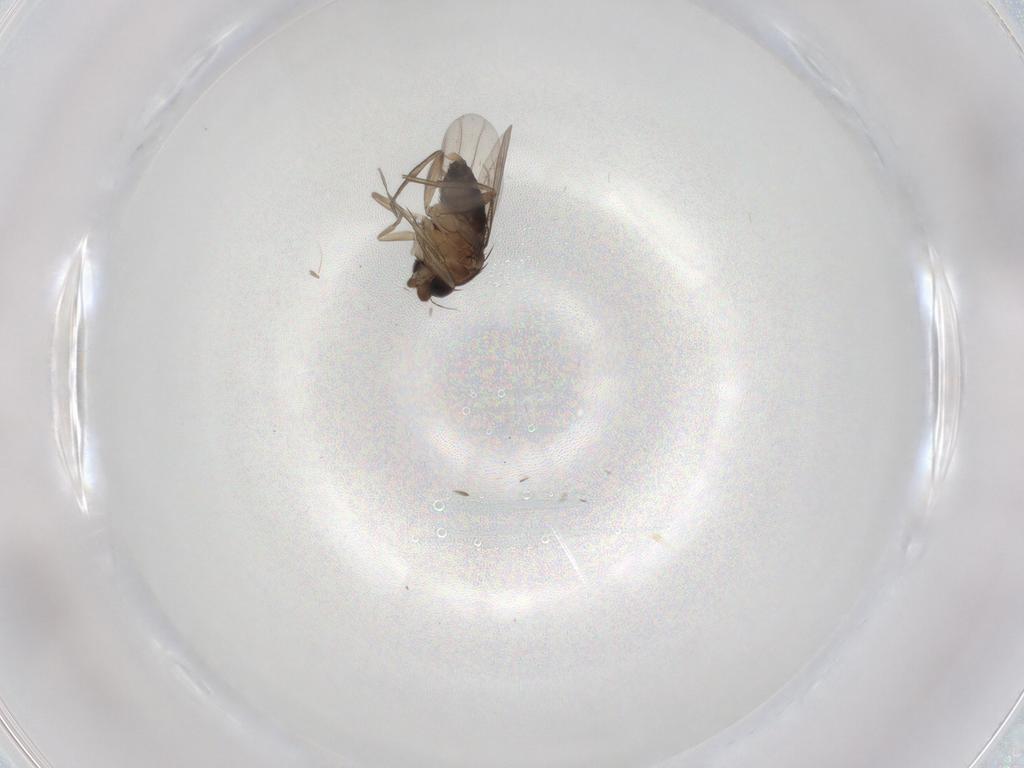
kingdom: Animalia
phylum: Arthropoda
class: Insecta
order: Diptera
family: Phoridae
